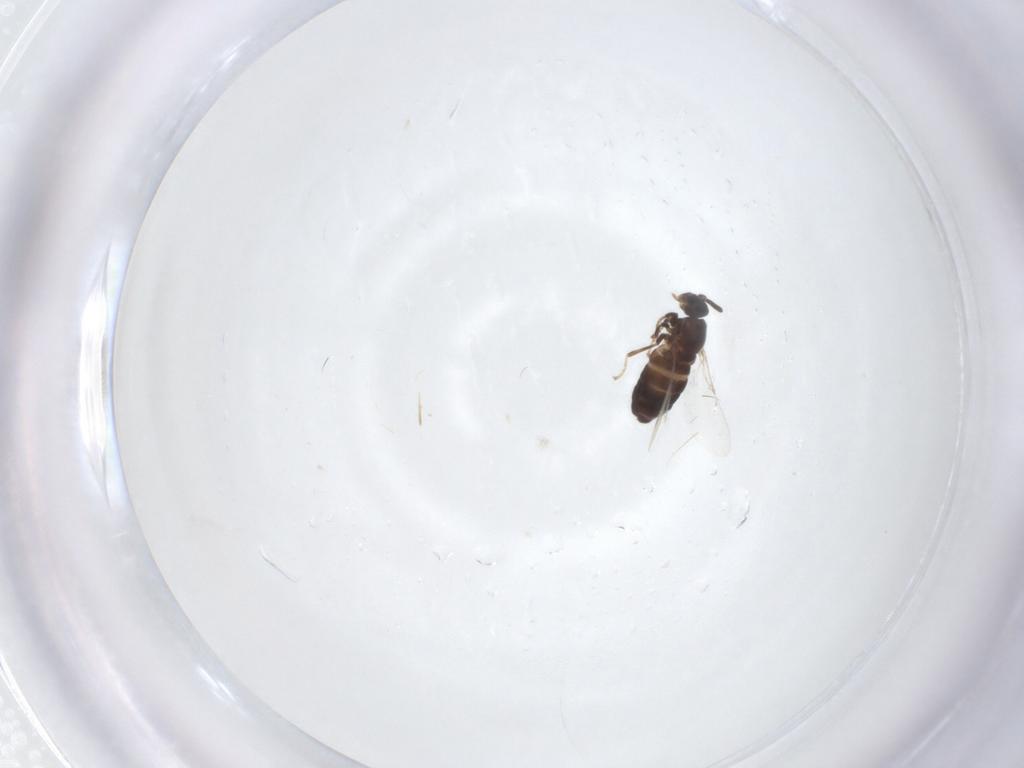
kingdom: Animalia
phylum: Arthropoda
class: Insecta
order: Diptera
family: Scatopsidae
